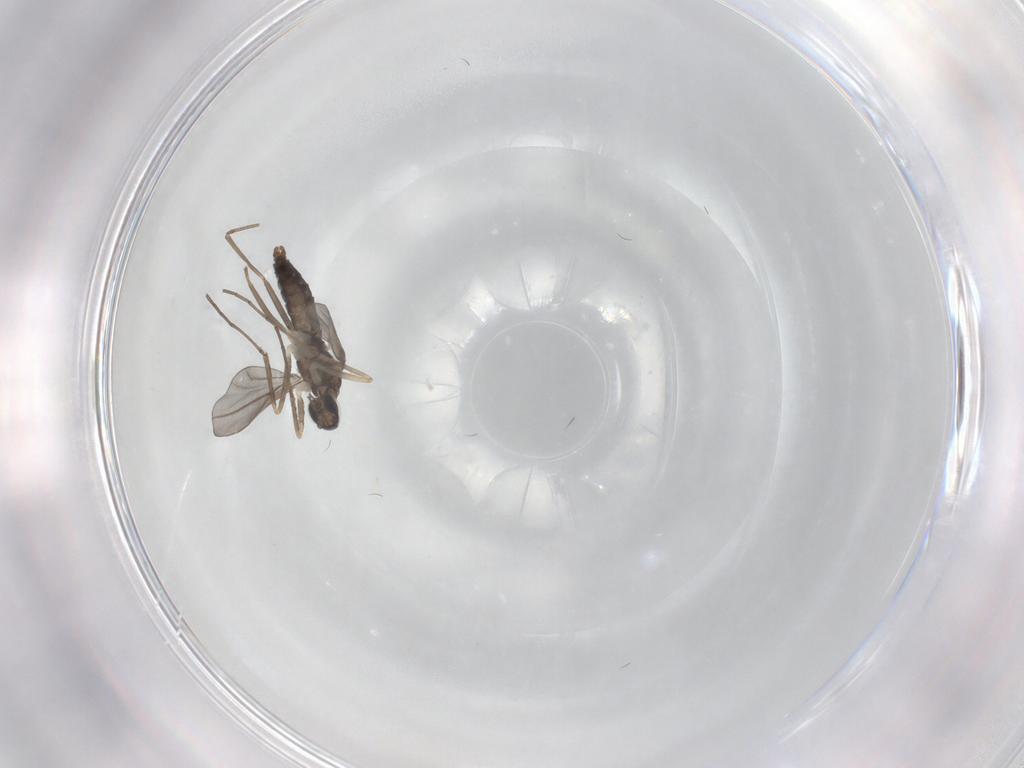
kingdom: Animalia
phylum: Arthropoda
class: Insecta
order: Diptera
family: Cecidomyiidae
